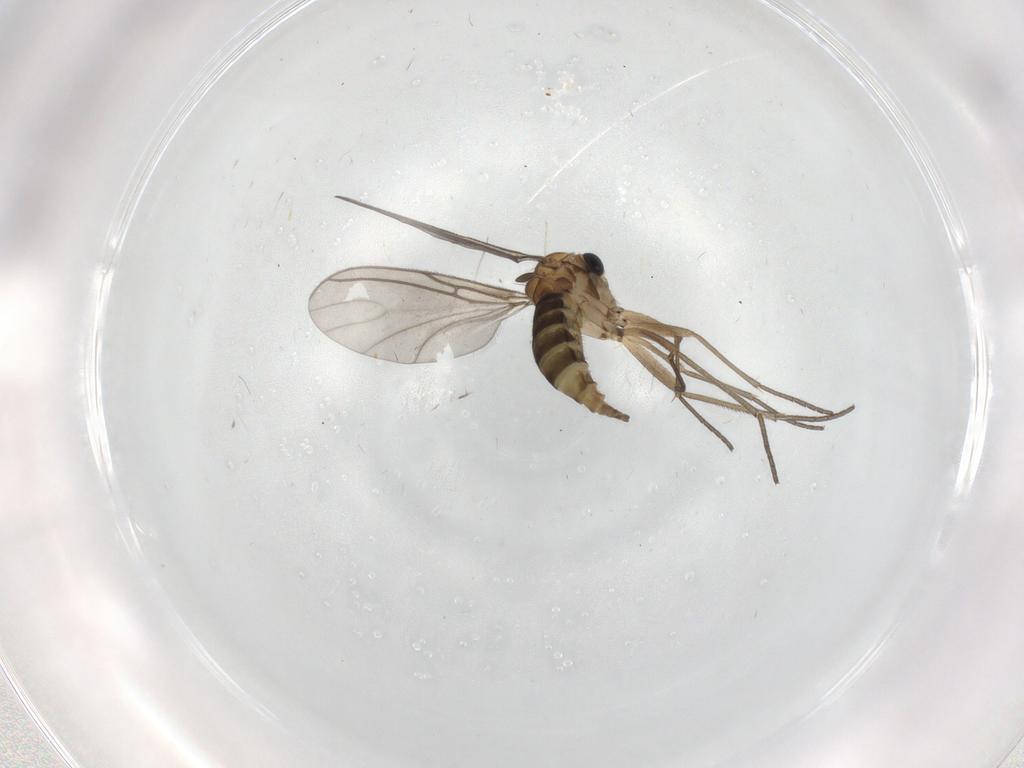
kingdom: Animalia
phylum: Arthropoda
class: Insecta
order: Diptera
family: Sciaridae
